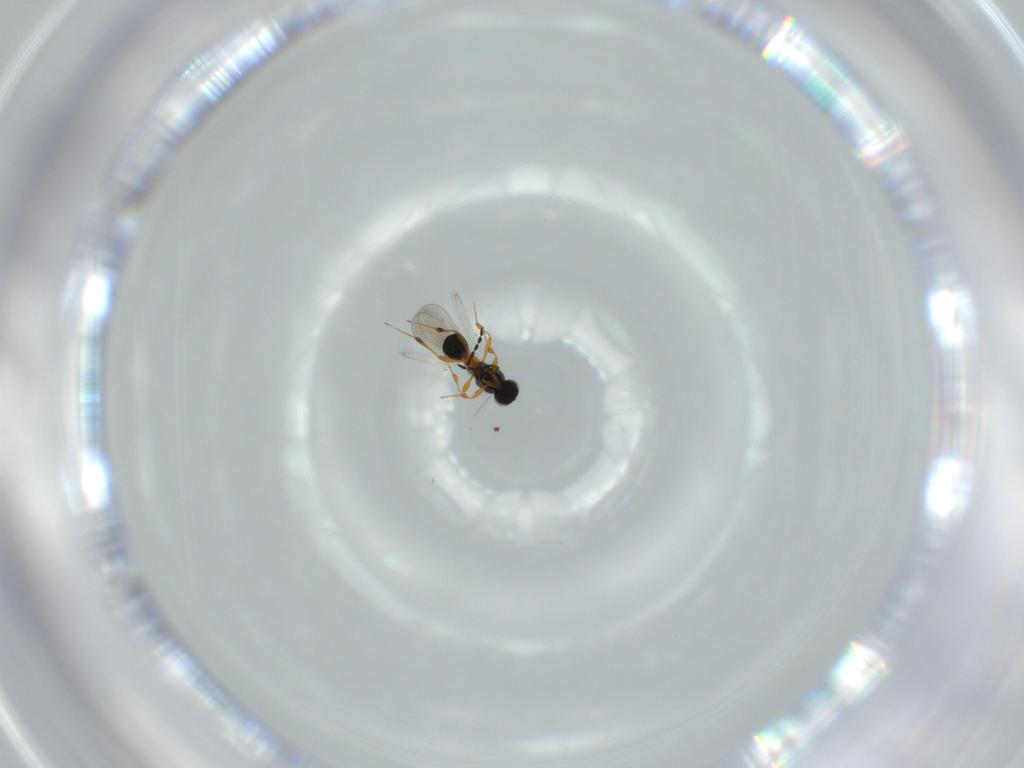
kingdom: Animalia
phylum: Arthropoda
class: Insecta
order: Hymenoptera
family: Platygastridae
